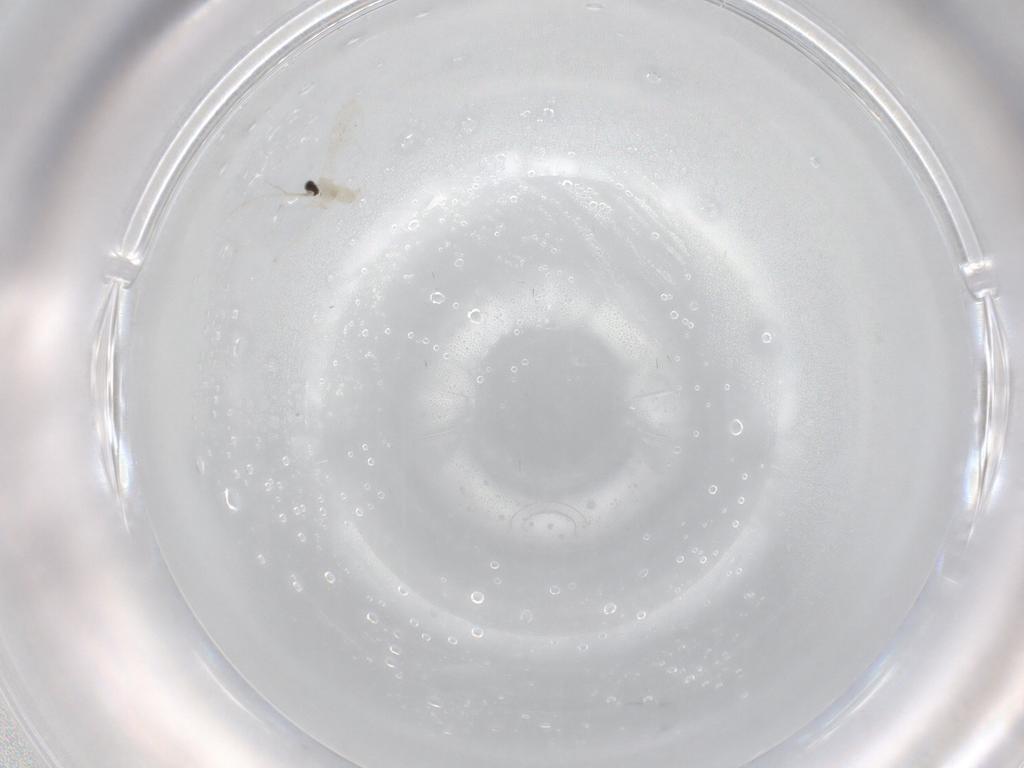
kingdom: Animalia
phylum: Arthropoda
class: Insecta
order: Diptera
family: Cecidomyiidae
